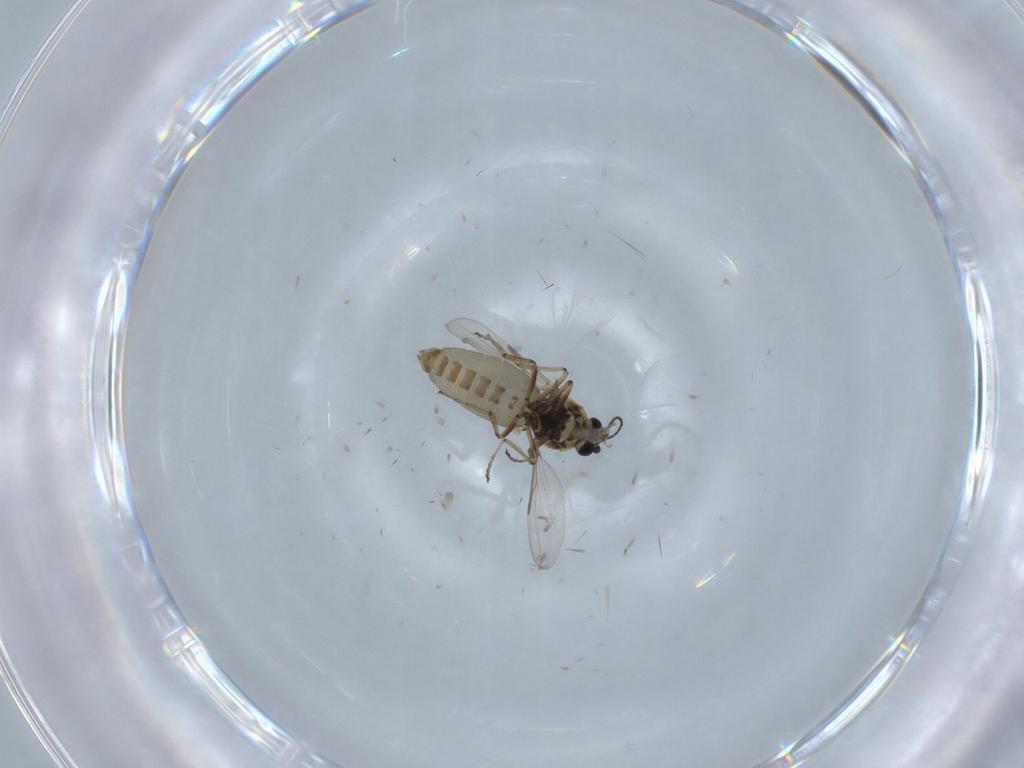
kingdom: Animalia
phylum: Arthropoda
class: Insecta
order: Diptera
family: Ceratopogonidae
